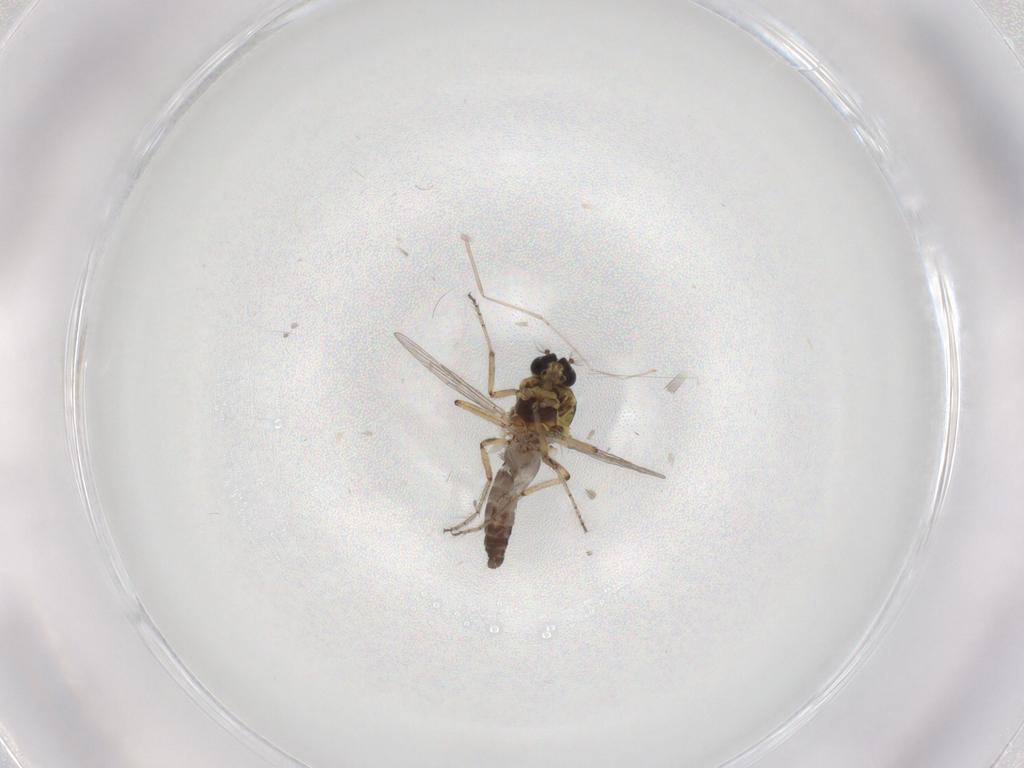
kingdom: Animalia
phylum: Arthropoda
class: Insecta
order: Diptera
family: Ceratopogonidae
